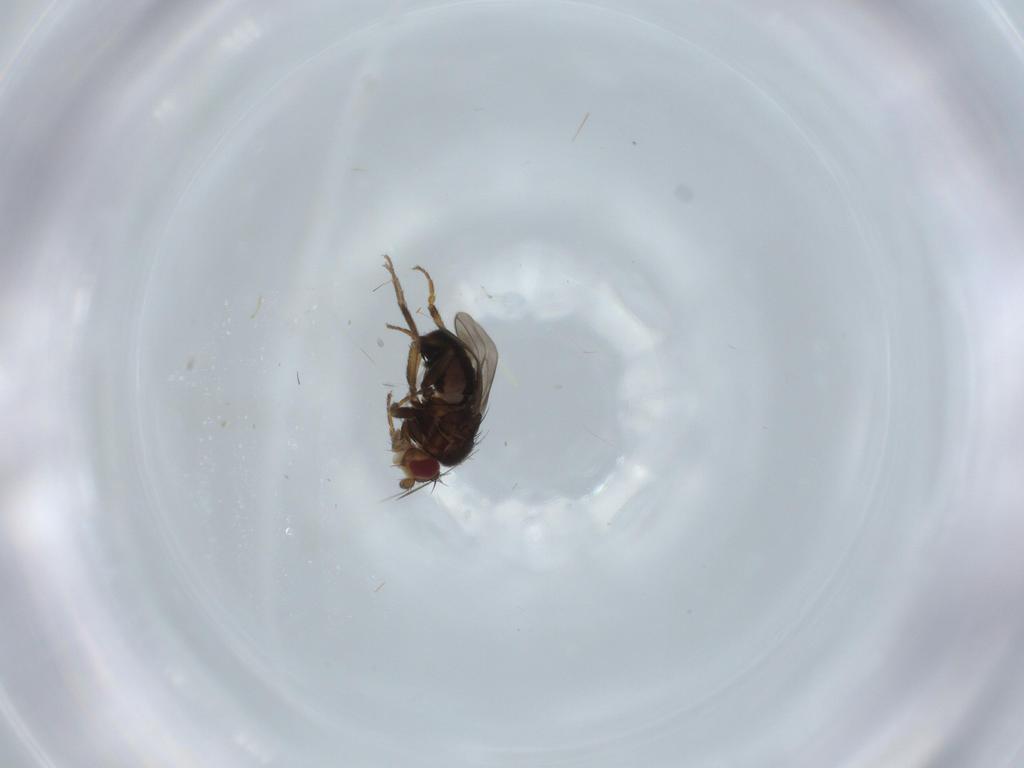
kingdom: Animalia
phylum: Arthropoda
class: Insecta
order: Diptera
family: Sphaeroceridae
